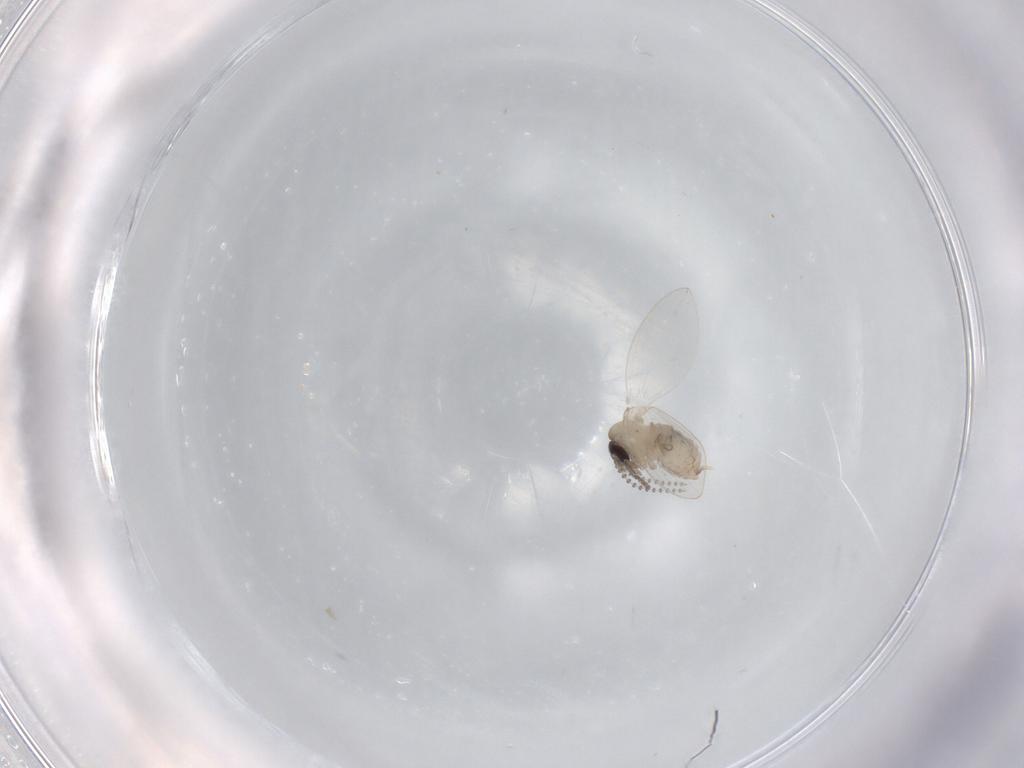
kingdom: Animalia
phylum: Arthropoda
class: Insecta
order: Diptera
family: Psychodidae
